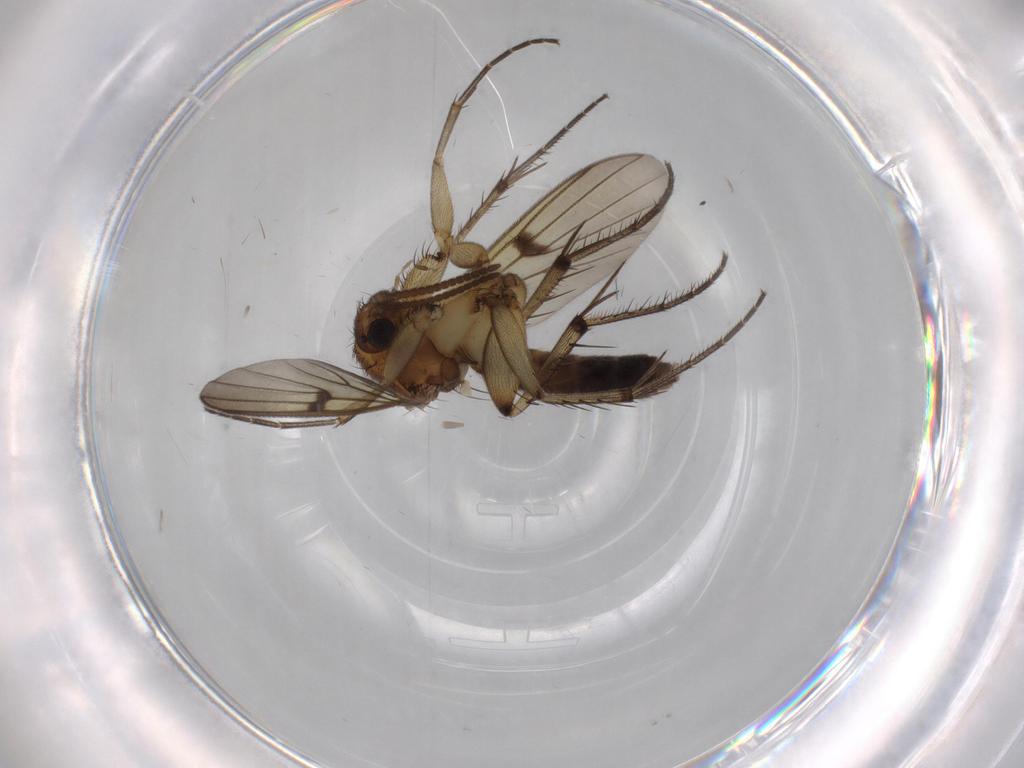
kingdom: Animalia
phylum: Arthropoda
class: Insecta
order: Diptera
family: Cecidomyiidae
